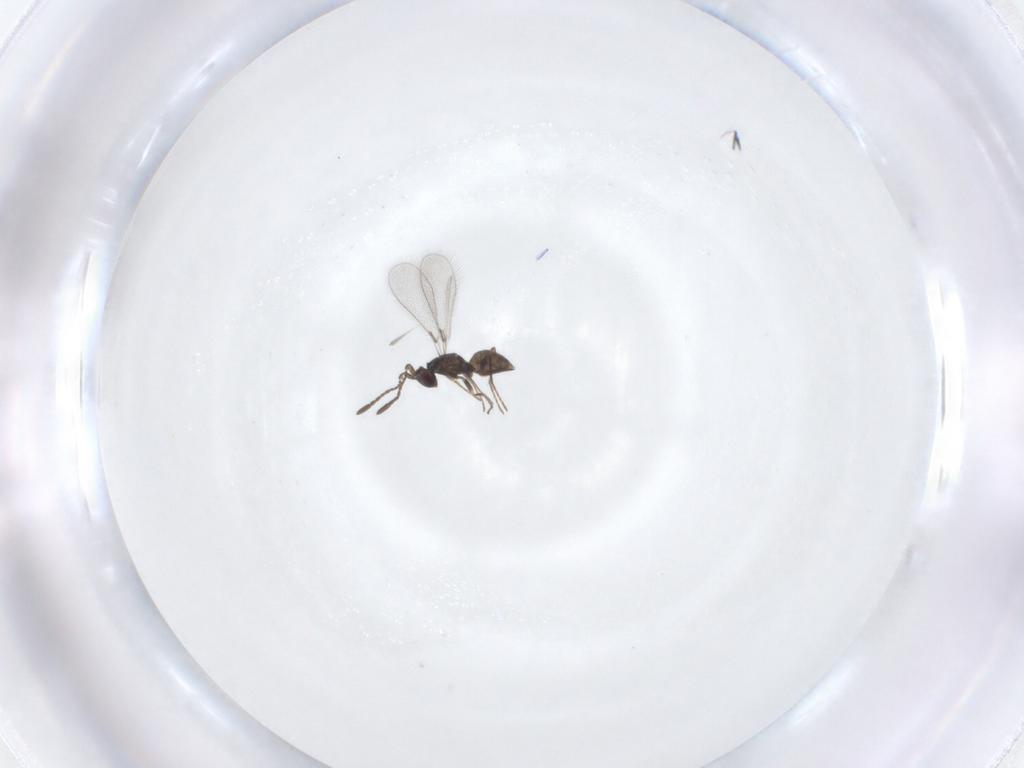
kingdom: Animalia
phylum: Arthropoda
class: Insecta
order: Hymenoptera
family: Mymaridae
